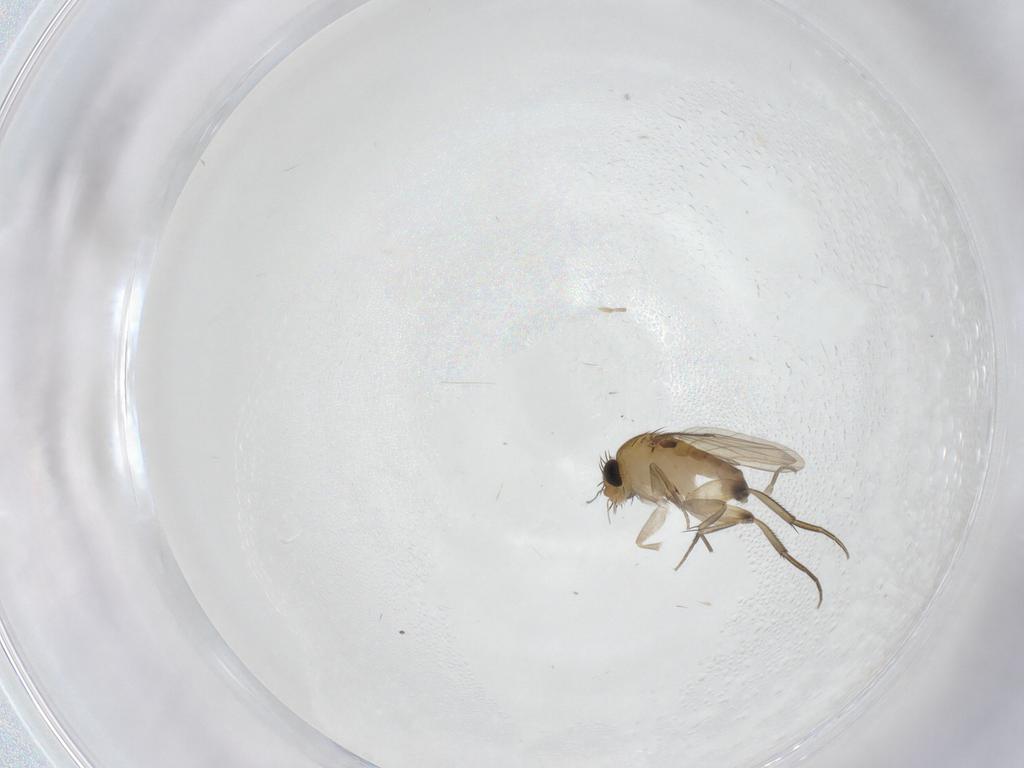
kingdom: Animalia
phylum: Arthropoda
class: Insecta
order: Diptera
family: Phoridae
